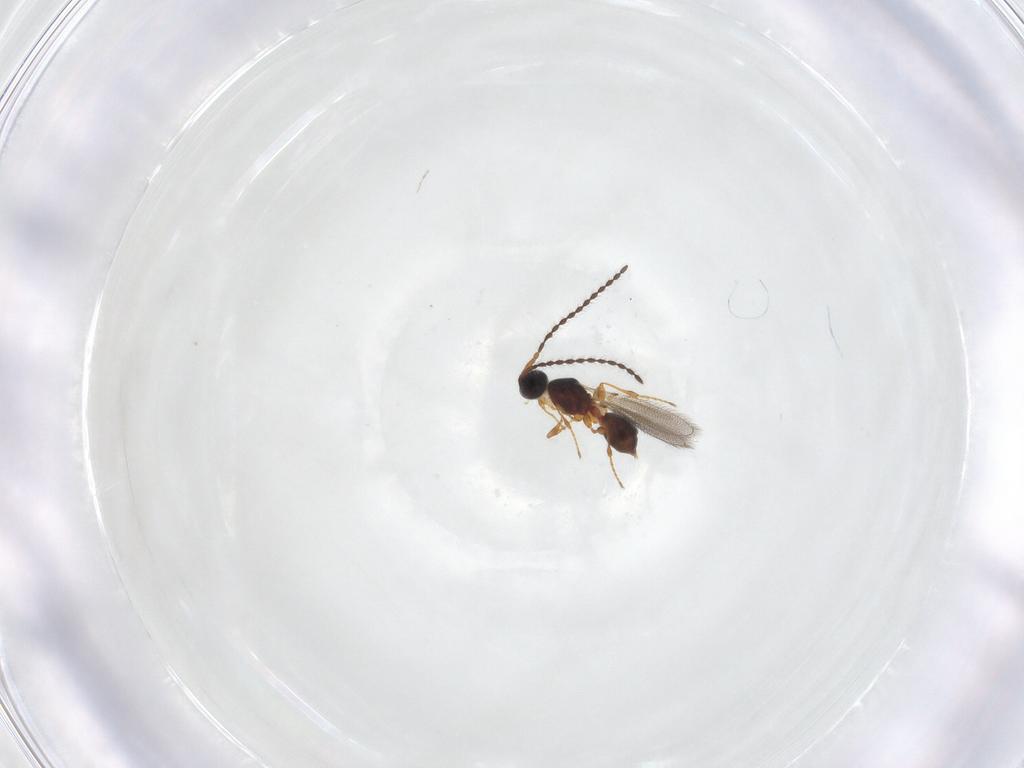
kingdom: Animalia
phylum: Arthropoda
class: Insecta
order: Hymenoptera
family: Diapriidae
